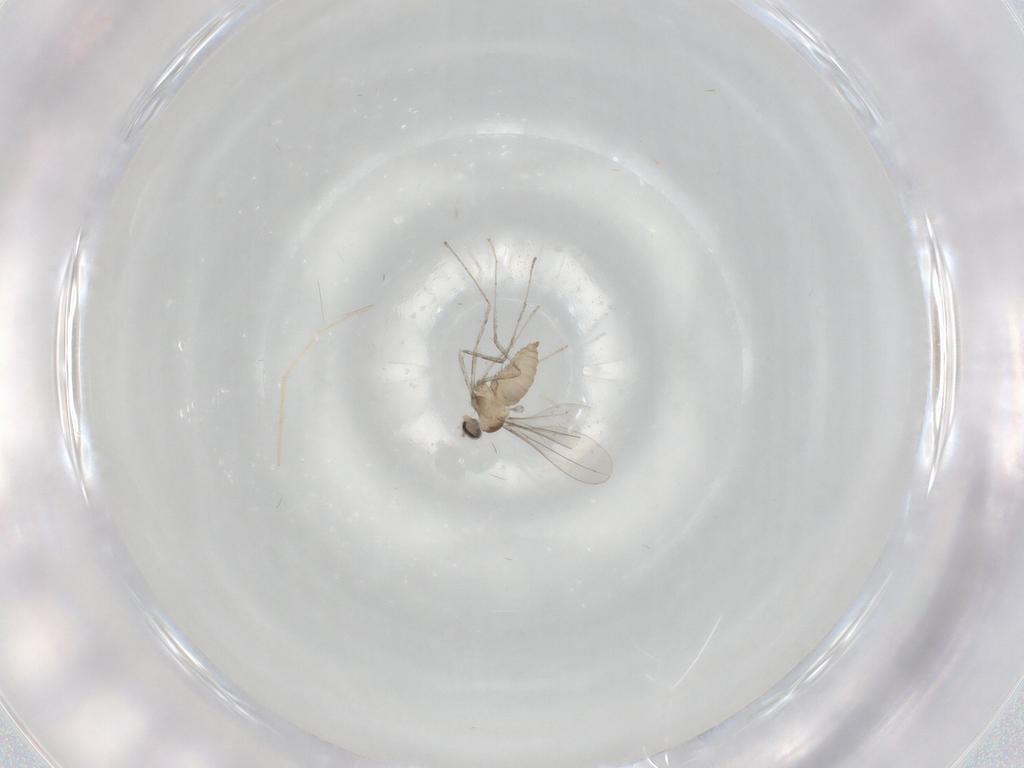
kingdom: Animalia
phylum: Arthropoda
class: Insecta
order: Diptera
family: Cecidomyiidae
